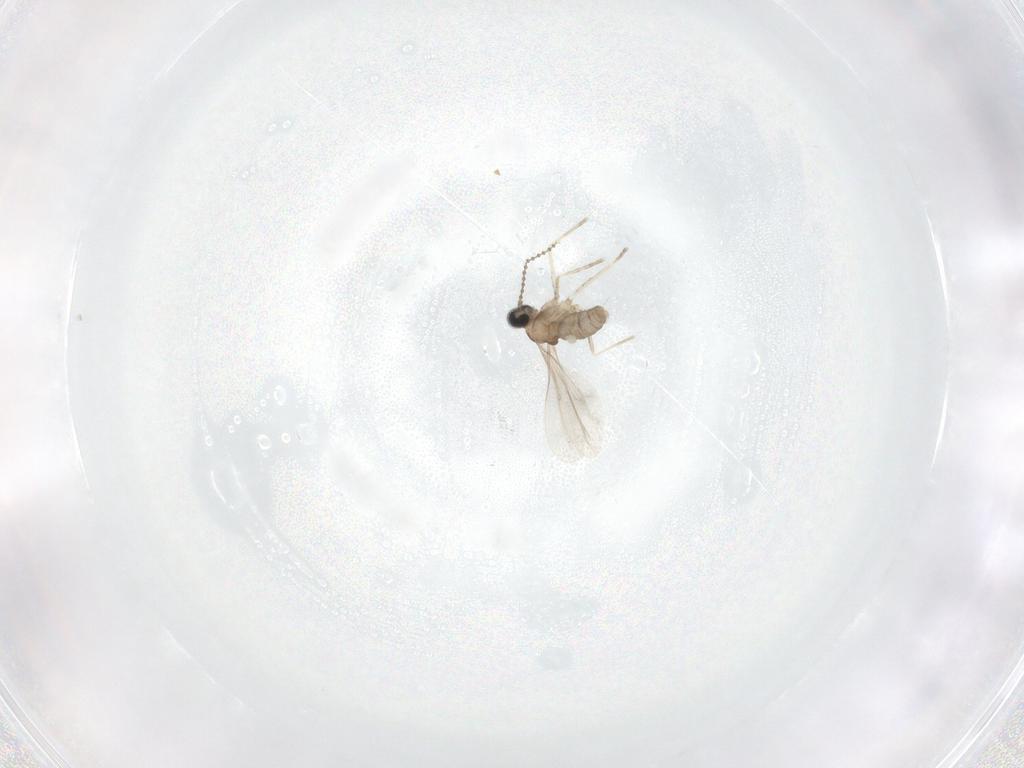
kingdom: Animalia
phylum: Arthropoda
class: Insecta
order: Diptera
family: Cecidomyiidae
